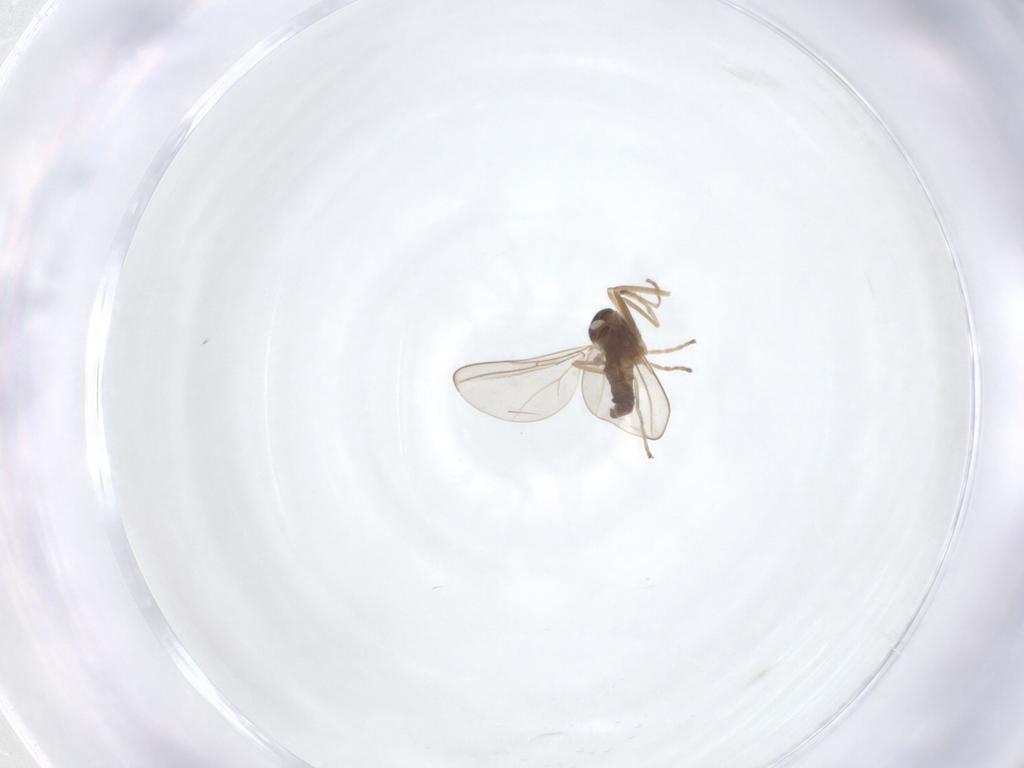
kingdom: Animalia
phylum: Arthropoda
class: Insecta
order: Diptera
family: Cecidomyiidae
